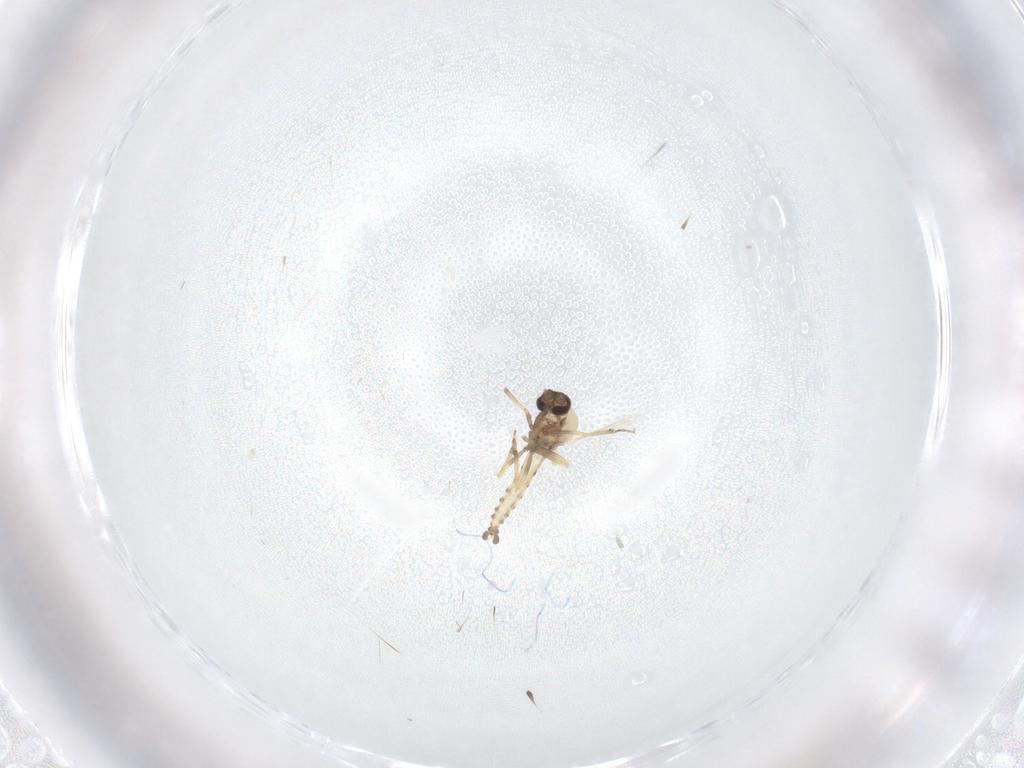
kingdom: Animalia
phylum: Arthropoda
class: Insecta
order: Diptera
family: Ceratopogonidae
